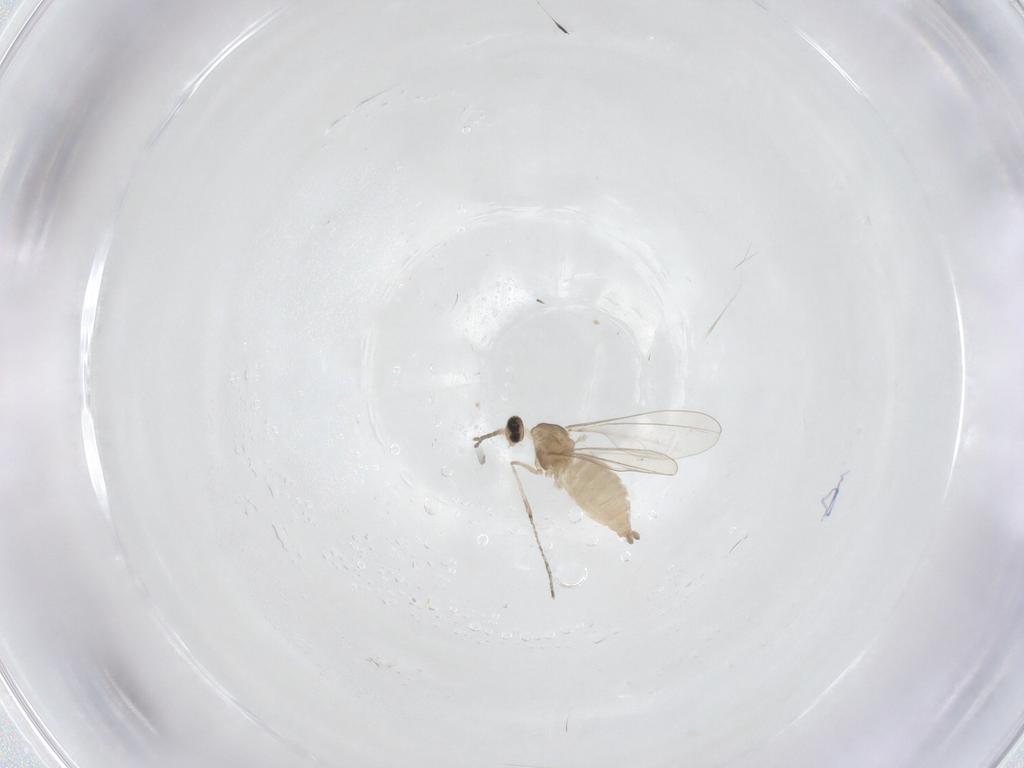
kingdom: Animalia
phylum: Arthropoda
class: Insecta
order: Diptera
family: Cecidomyiidae
